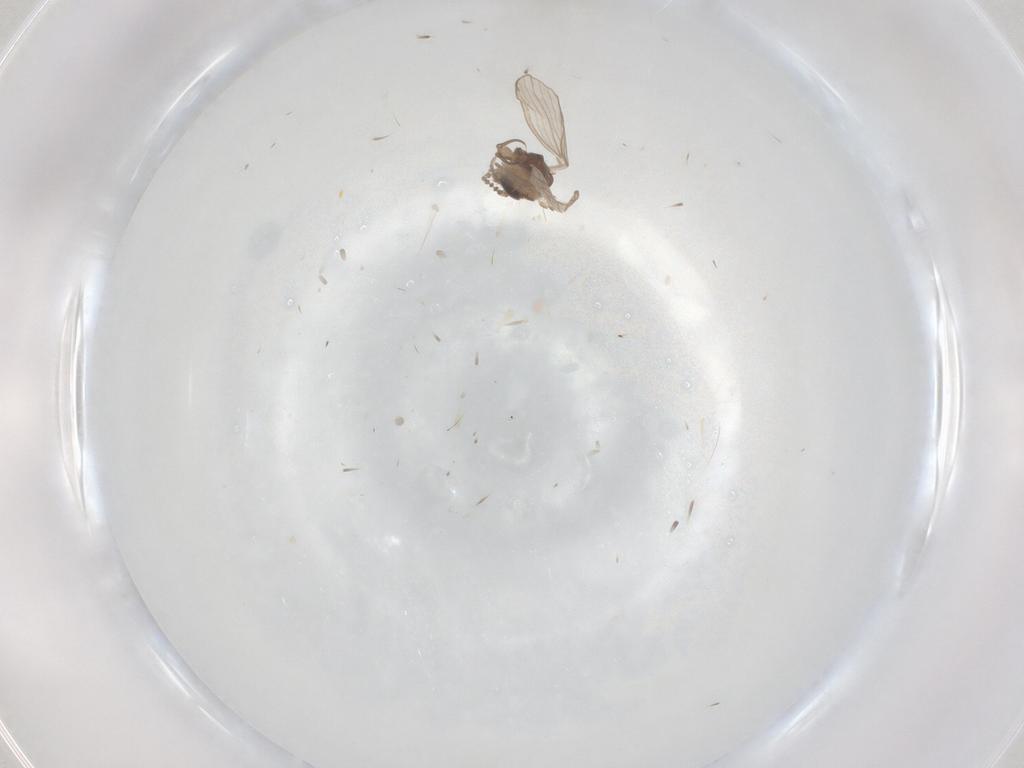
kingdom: Animalia
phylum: Arthropoda
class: Insecta
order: Diptera
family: Psychodidae
